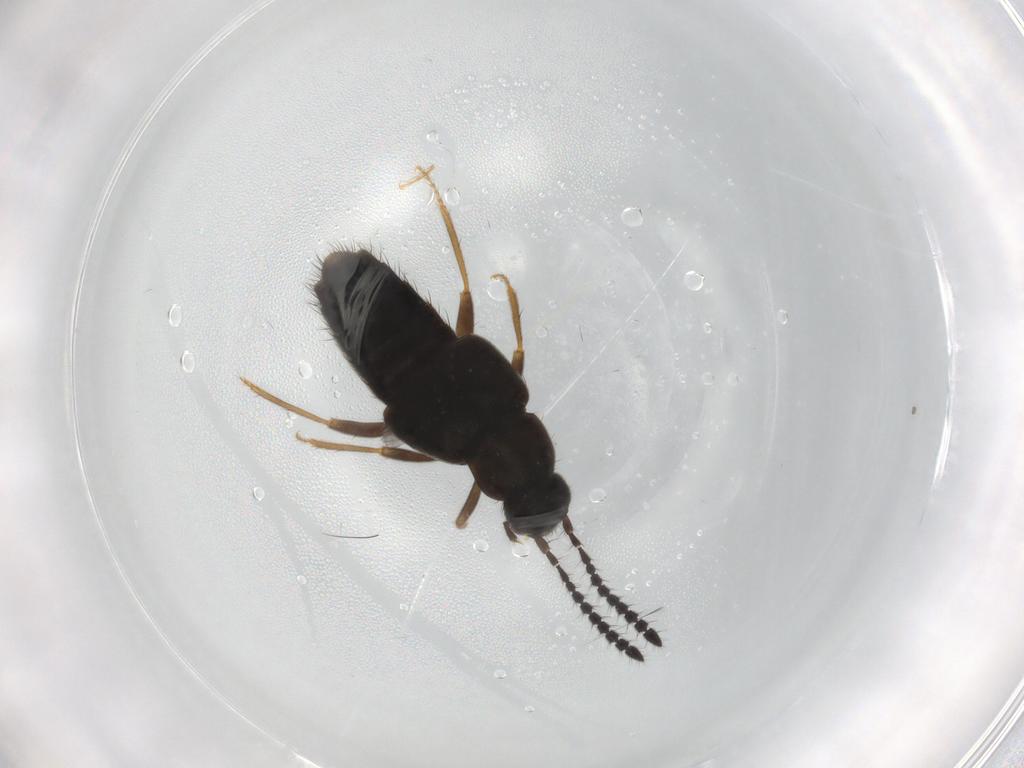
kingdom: Animalia
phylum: Arthropoda
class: Insecta
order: Coleoptera
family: Staphylinidae
